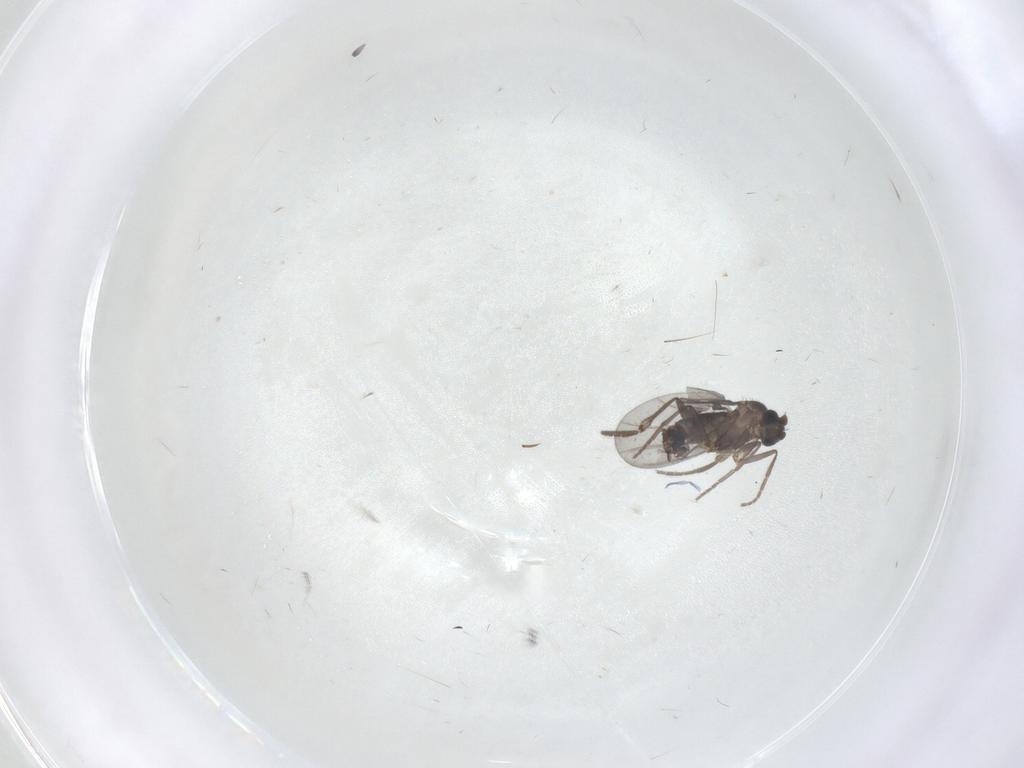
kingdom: Animalia
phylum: Arthropoda
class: Insecta
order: Diptera
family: Phoridae
